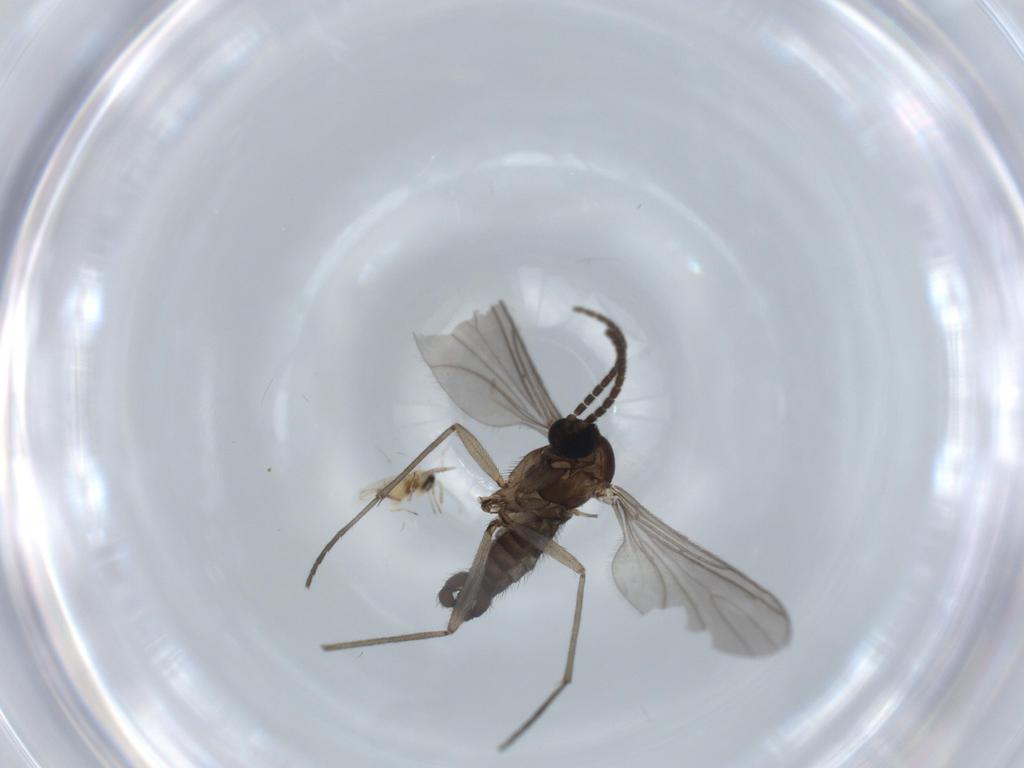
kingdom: Animalia
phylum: Arthropoda
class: Insecta
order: Diptera
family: Sciaridae
